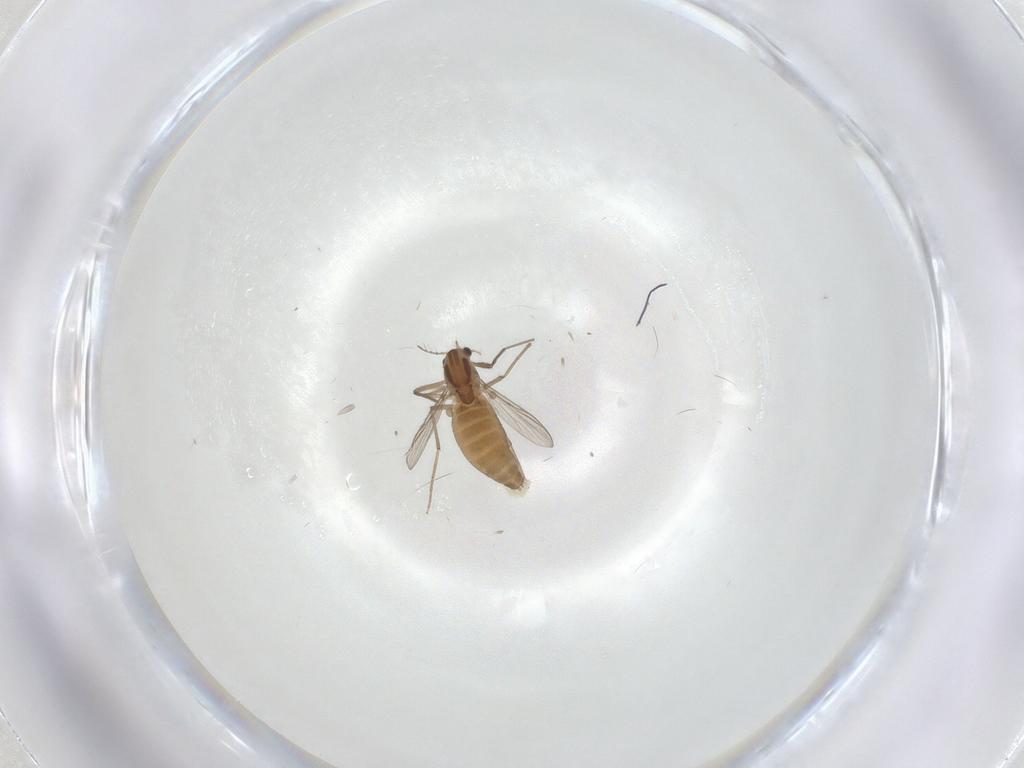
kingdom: Animalia
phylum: Arthropoda
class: Insecta
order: Diptera
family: Chironomidae
